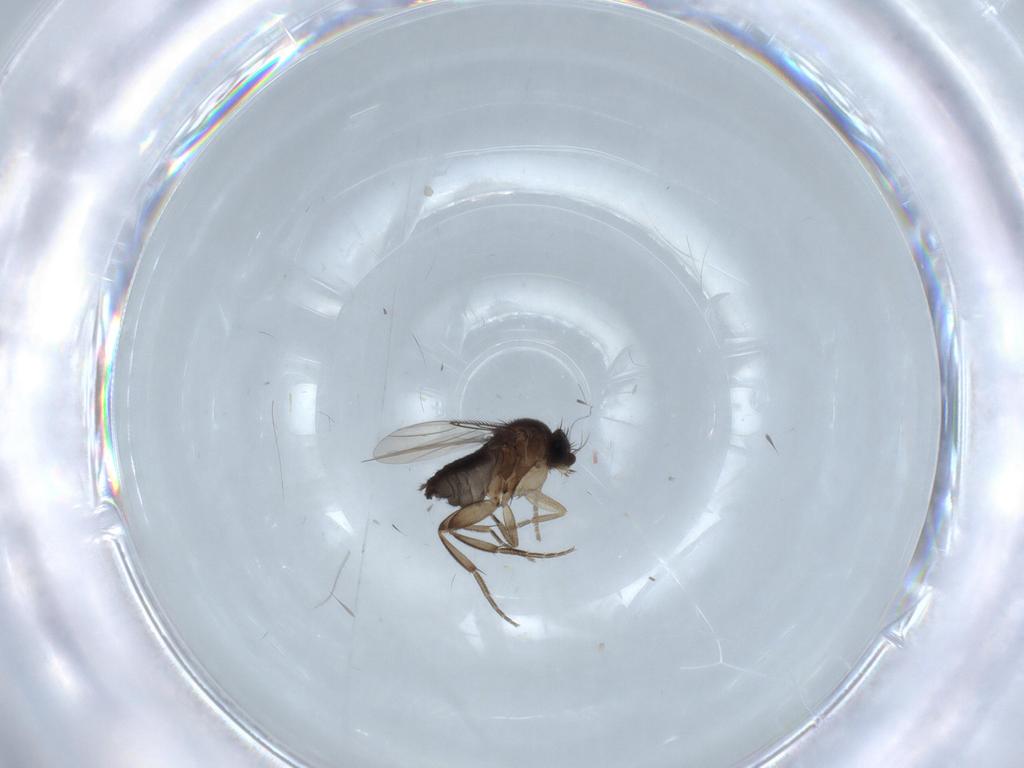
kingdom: Animalia
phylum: Arthropoda
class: Insecta
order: Diptera
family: Phoridae
